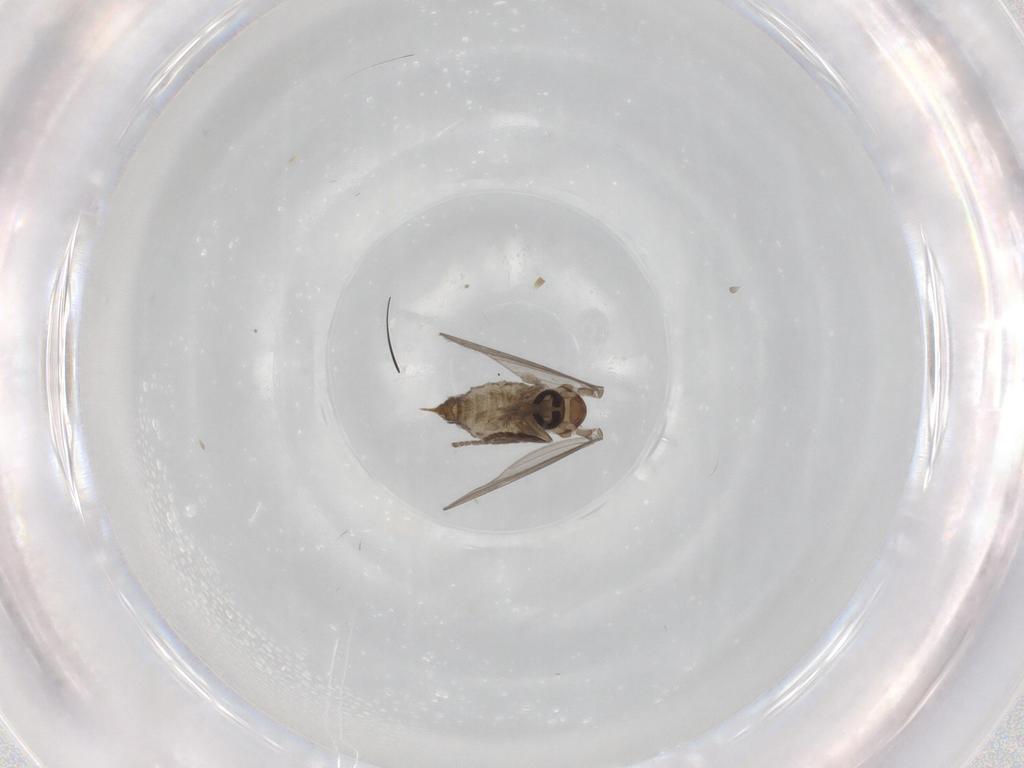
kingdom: Animalia
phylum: Arthropoda
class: Insecta
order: Diptera
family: Psychodidae
